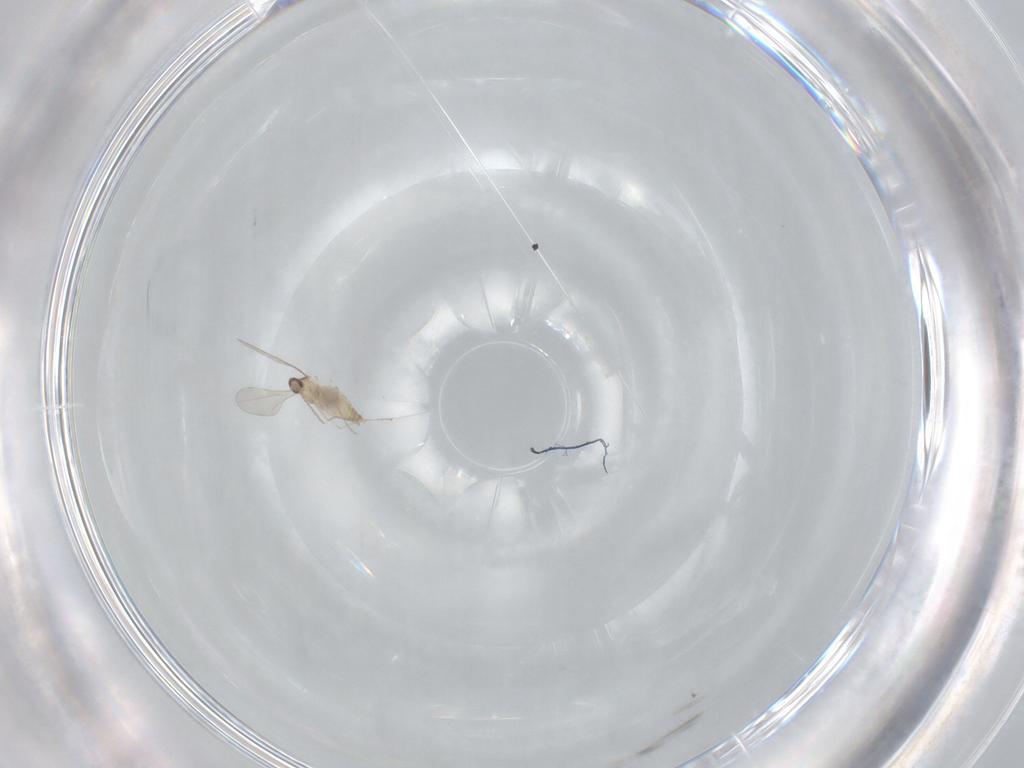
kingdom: Animalia
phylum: Arthropoda
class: Insecta
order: Diptera
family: Cecidomyiidae
